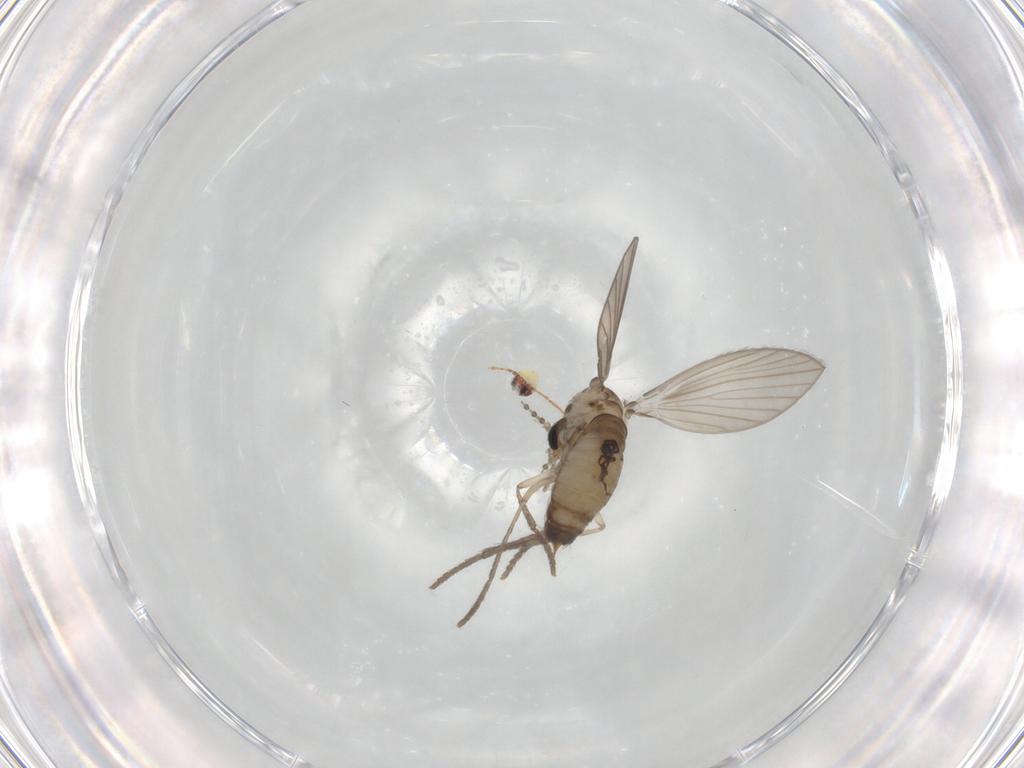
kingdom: Animalia
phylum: Arthropoda
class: Insecta
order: Diptera
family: Psychodidae
